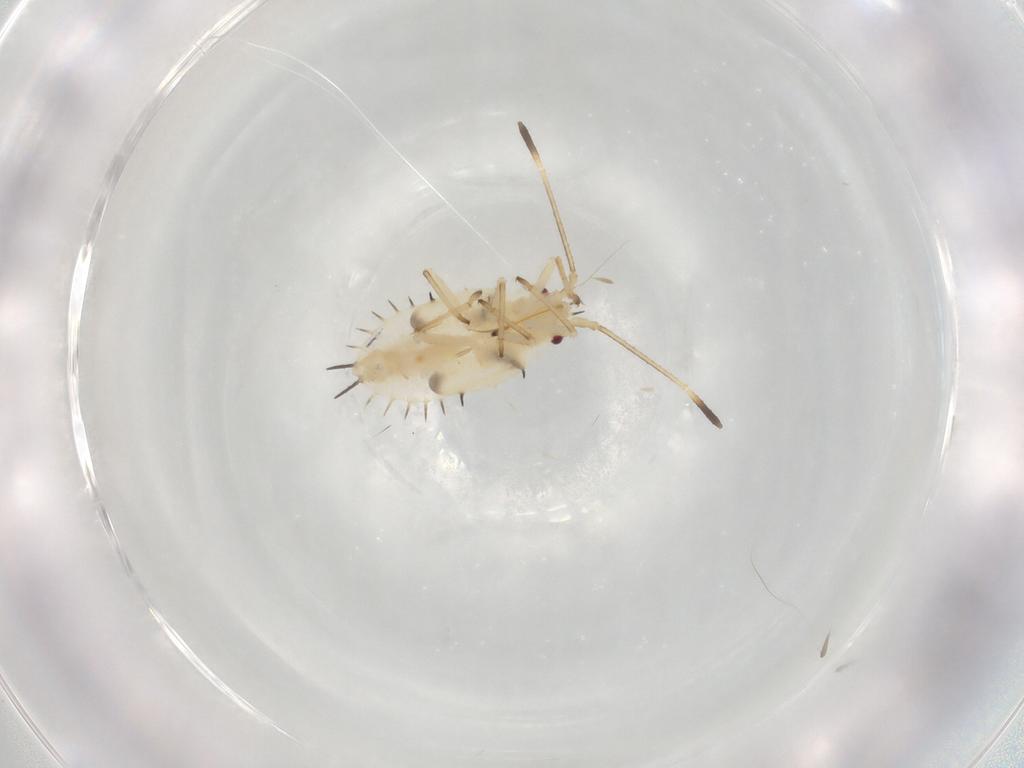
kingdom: Animalia
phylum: Arthropoda
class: Insecta
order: Hemiptera
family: Tingidae
